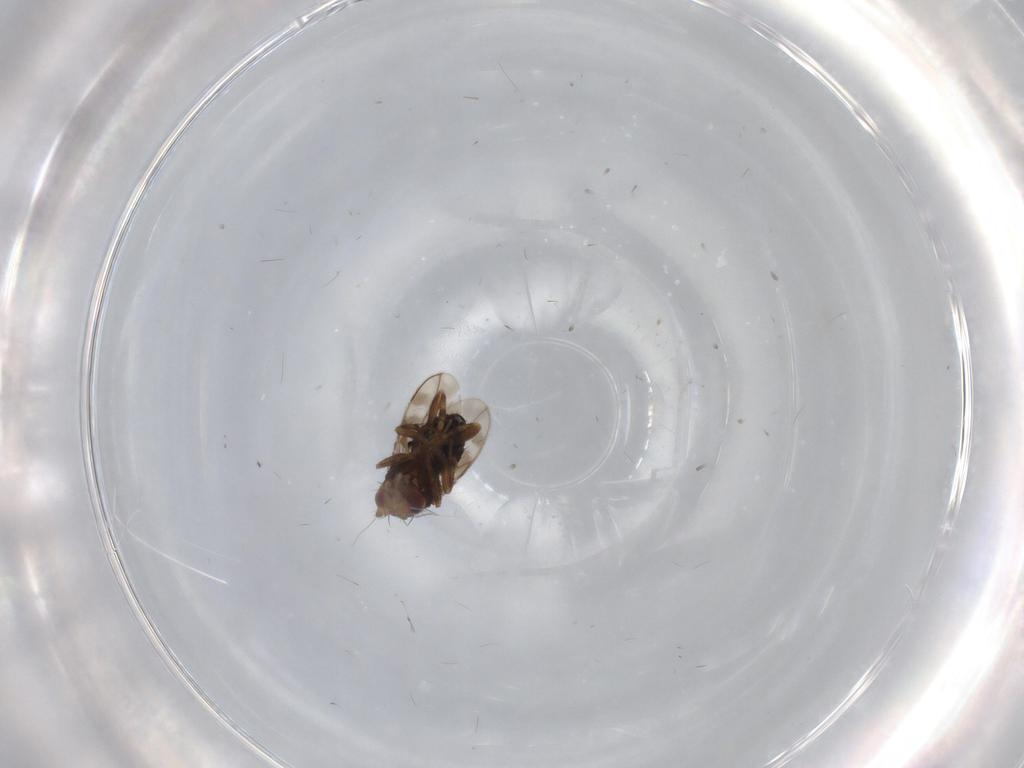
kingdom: Animalia
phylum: Arthropoda
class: Insecta
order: Diptera
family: Sphaeroceridae
